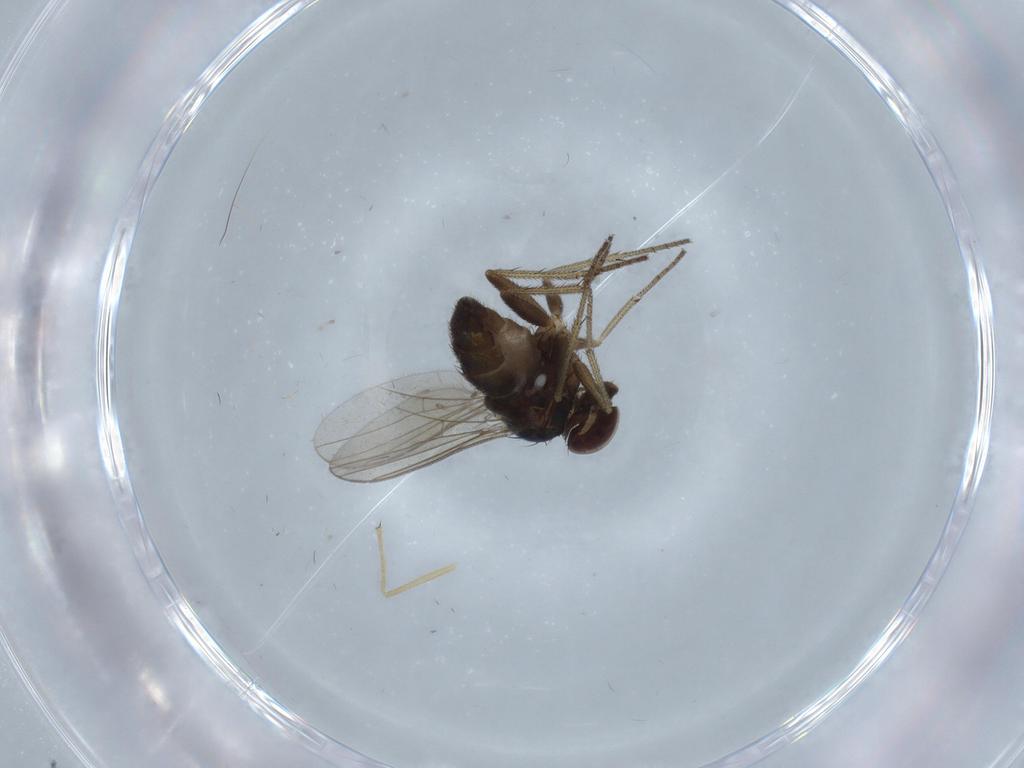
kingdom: Animalia
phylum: Arthropoda
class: Insecta
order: Diptera
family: Chironomidae
